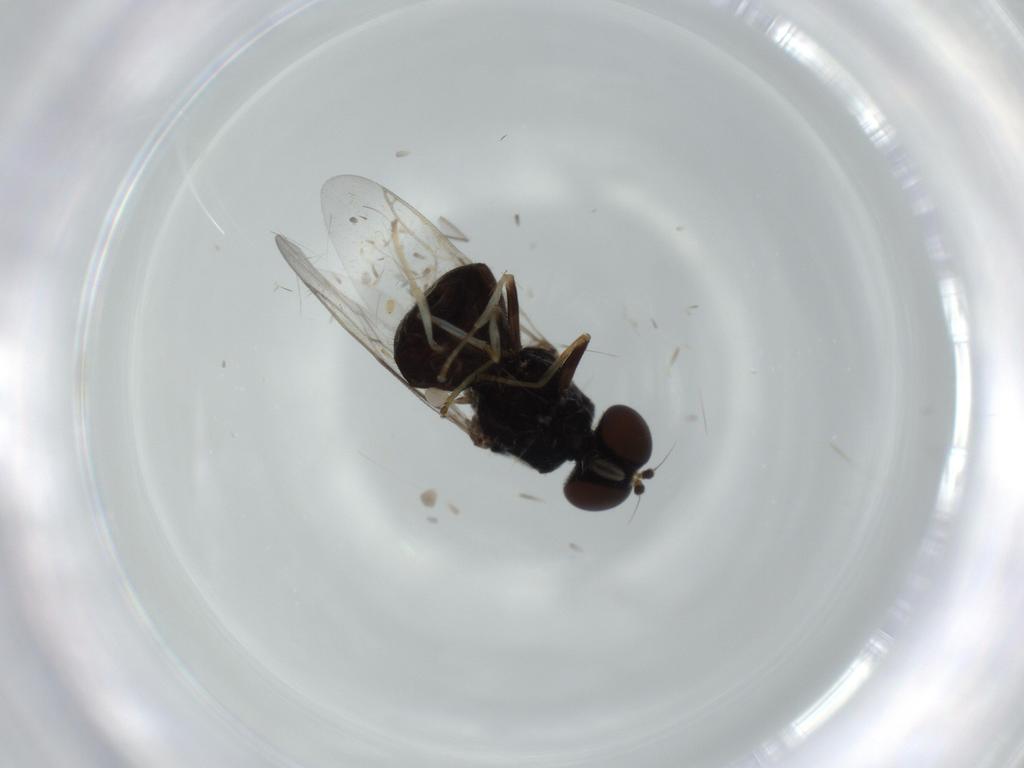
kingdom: Animalia
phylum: Arthropoda
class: Insecta
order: Diptera
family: Stratiomyidae
